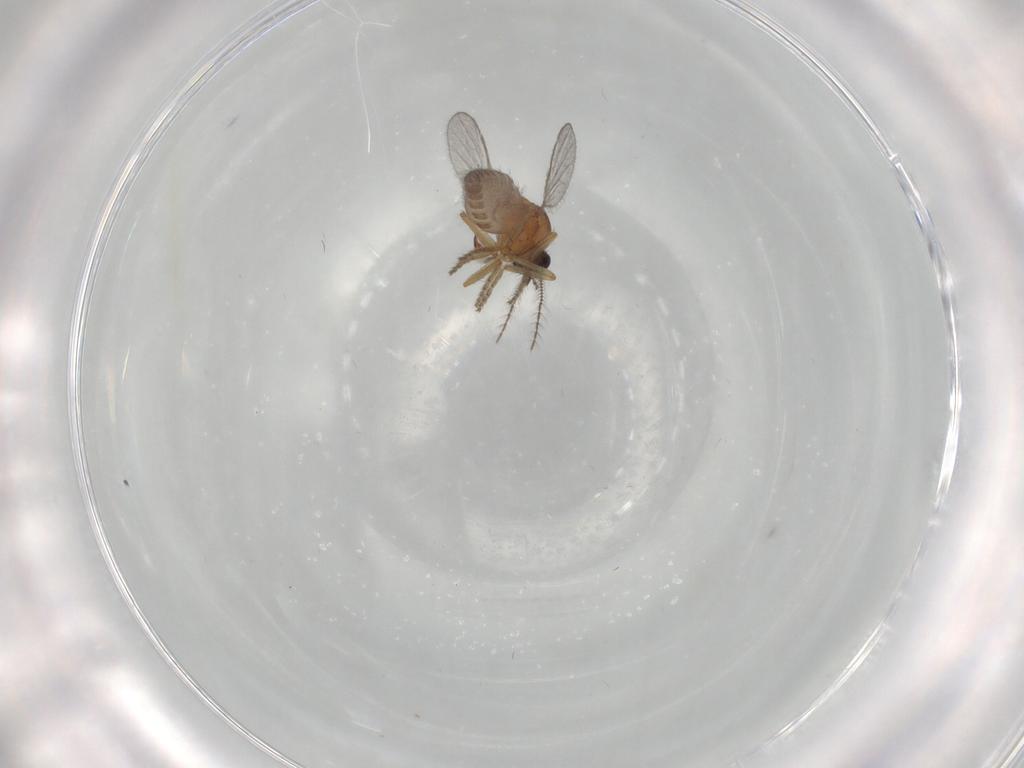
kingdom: Animalia
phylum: Arthropoda
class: Insecta
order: Diptera
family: Ceratopogonidae
